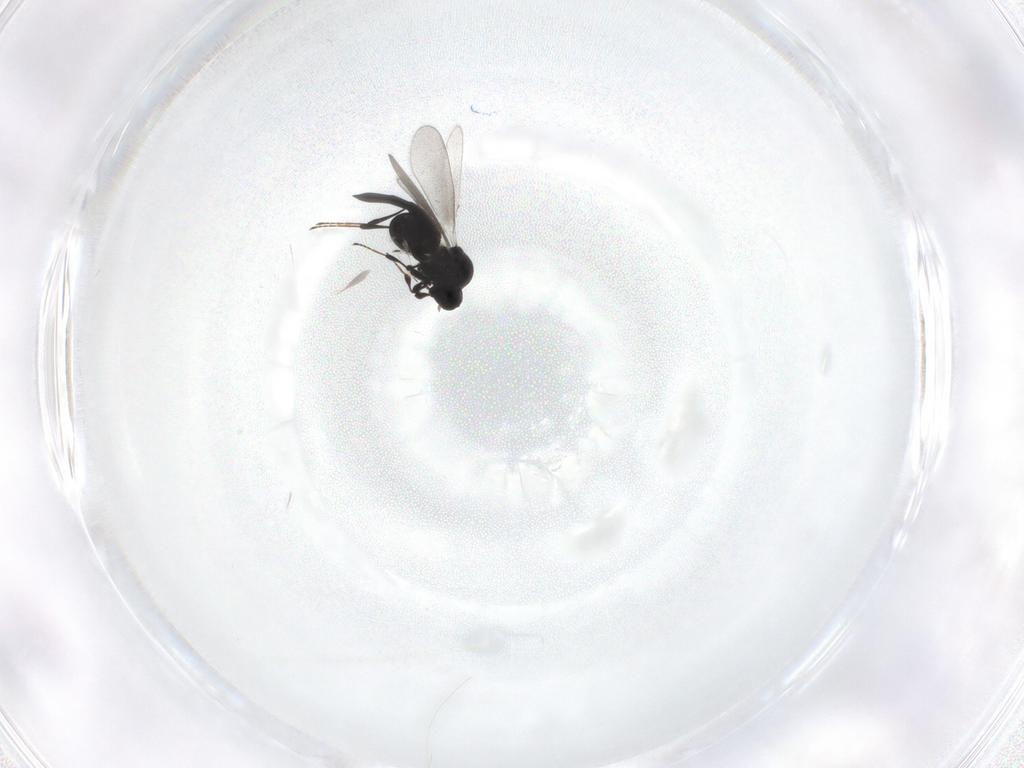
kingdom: Animalia
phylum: Arthropoda
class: Insecta
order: Hymenoptera
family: Platygastridae
